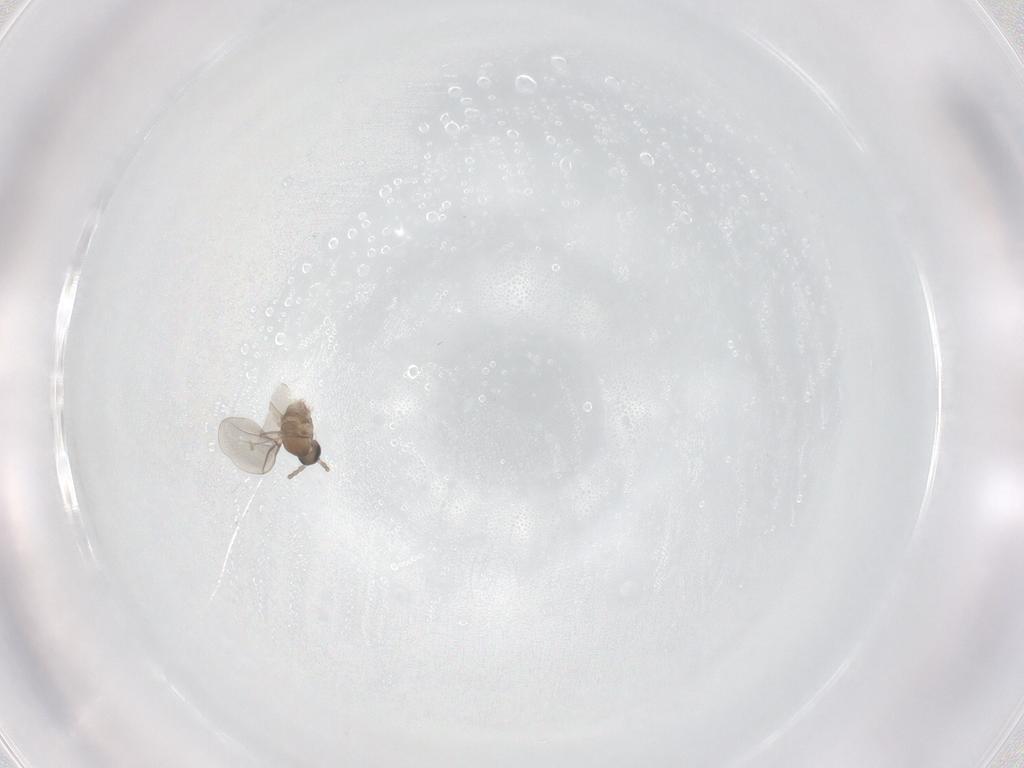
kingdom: Animalia
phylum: Arthropoda
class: Insecta
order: Diptera
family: Cecidomyiidae
